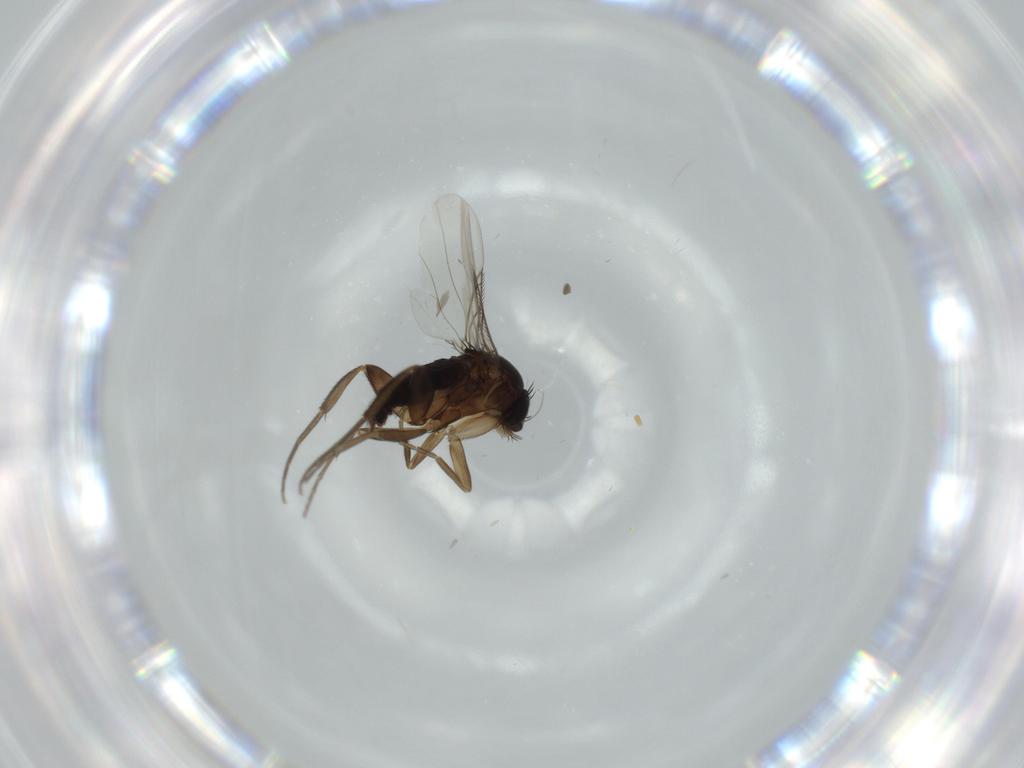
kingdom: Animalia
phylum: Arthropoda
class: Insecta
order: Diptera
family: Phoridae
